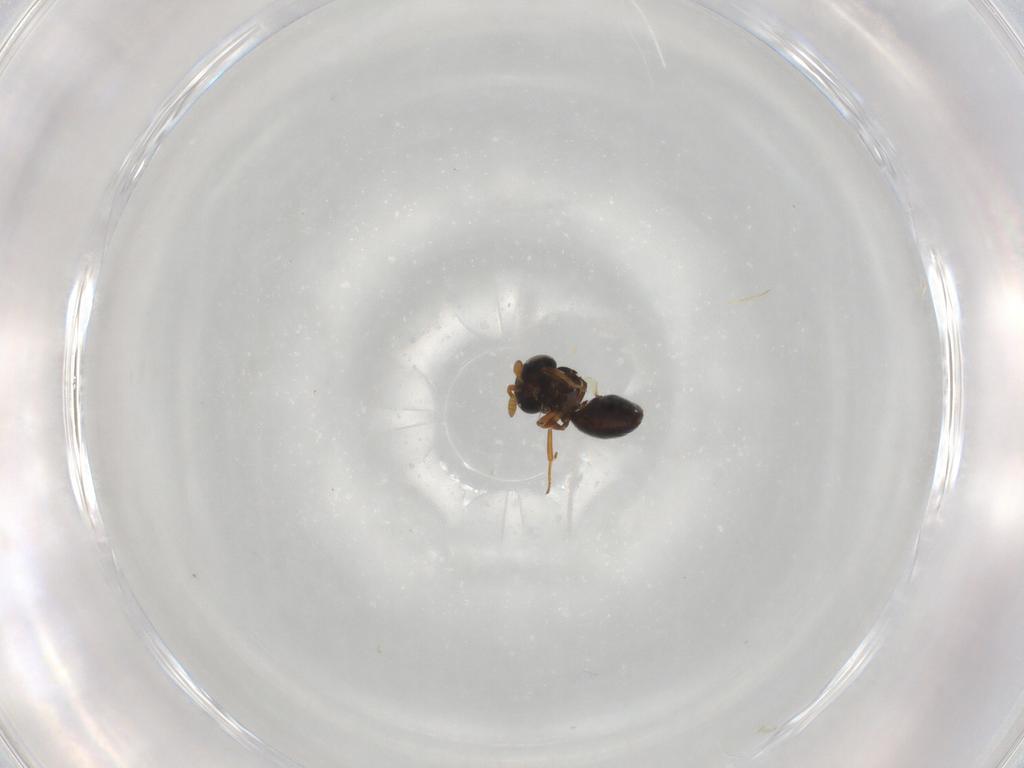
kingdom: Animalia
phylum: Arthropoda
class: Insecta
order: Hymenoptera
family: Scelionidae
